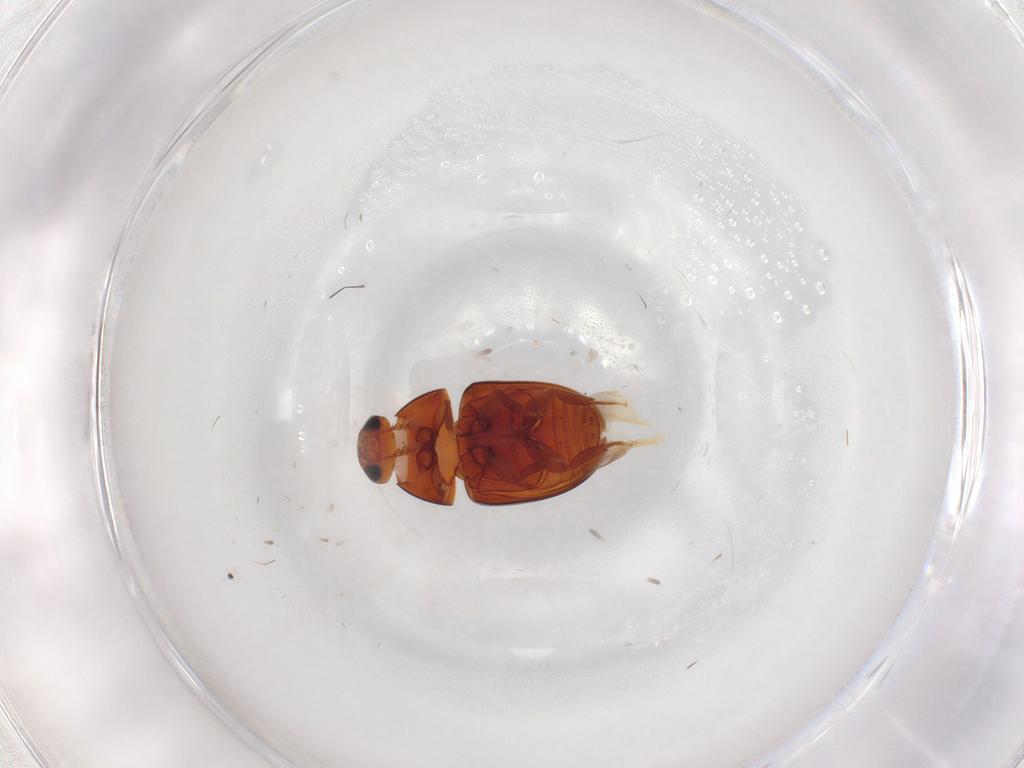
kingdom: Animalia
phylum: Arthropoda
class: Insecta
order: Coleoptera
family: Phalacridae
